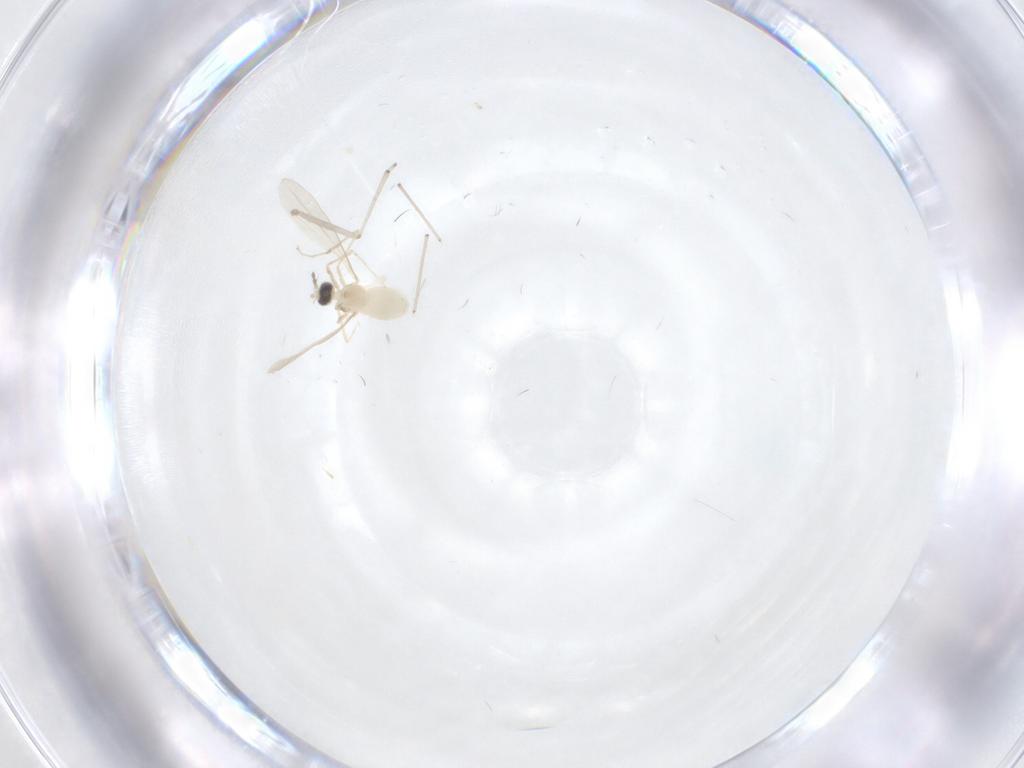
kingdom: Animalia
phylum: Arthropoda
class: Insecta
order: Diptera
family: Cecidomyiidae
